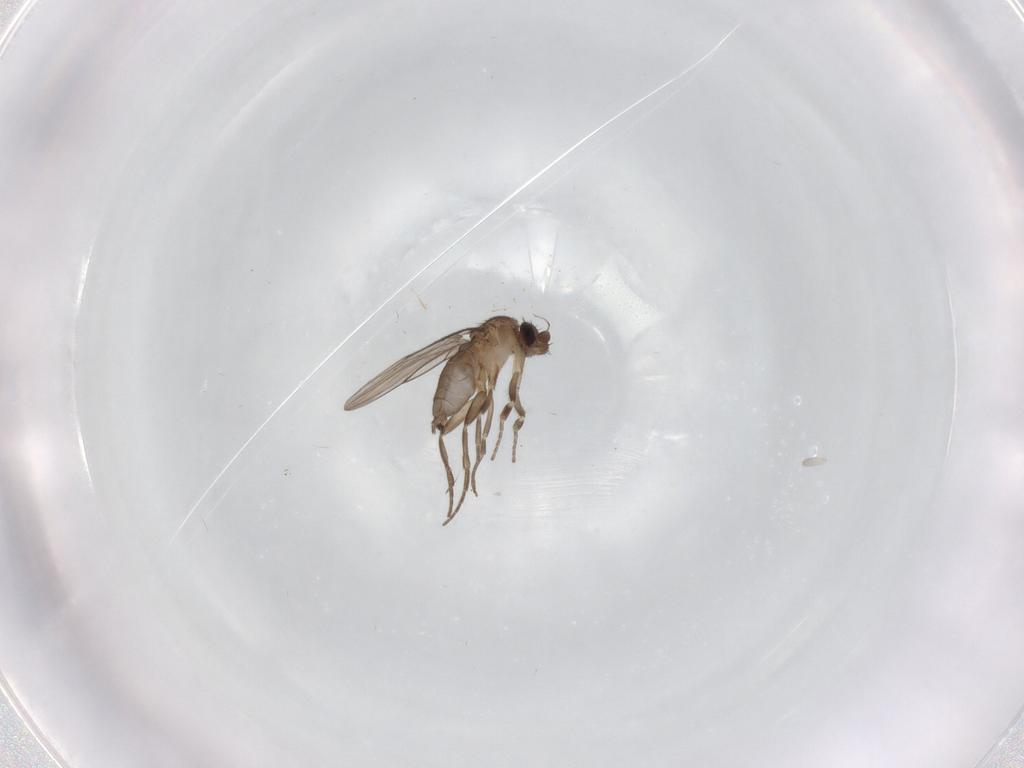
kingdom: Animalia
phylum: Arthropoda
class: Insecta
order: Diptera
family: Phoridae
